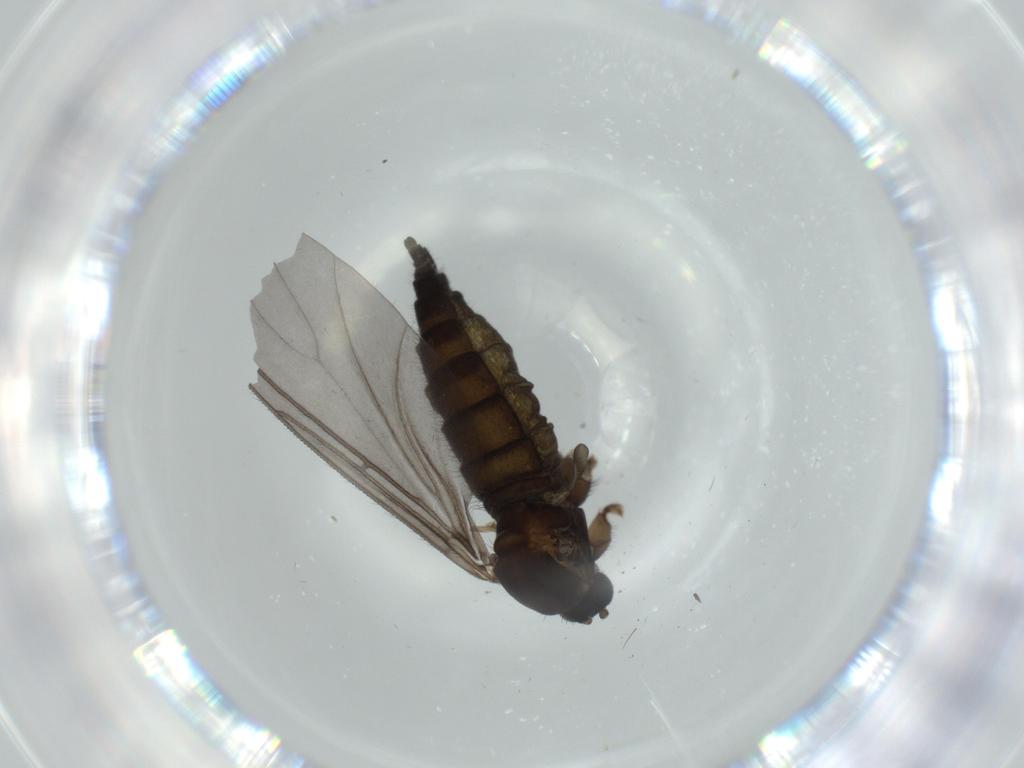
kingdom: Animalia
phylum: Arthropoda
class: Insecta
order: Diptera
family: Sciaridae
